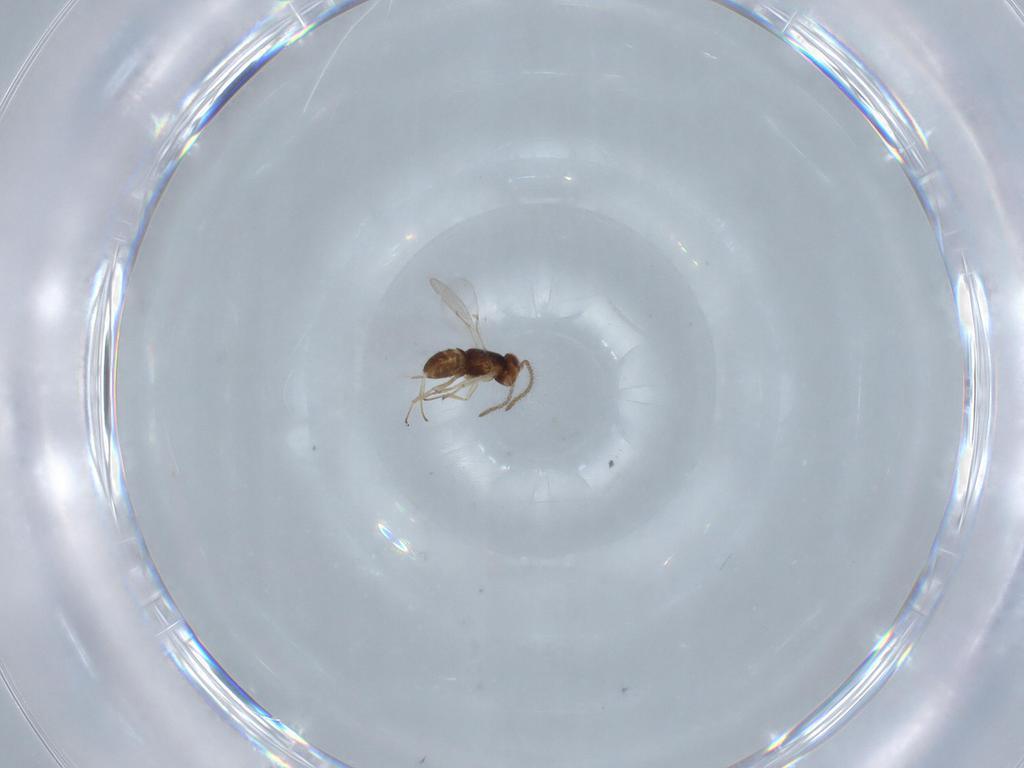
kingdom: Animalia
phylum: Arthropoda
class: Insecta
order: Hymenoptera
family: Encyrtidae
